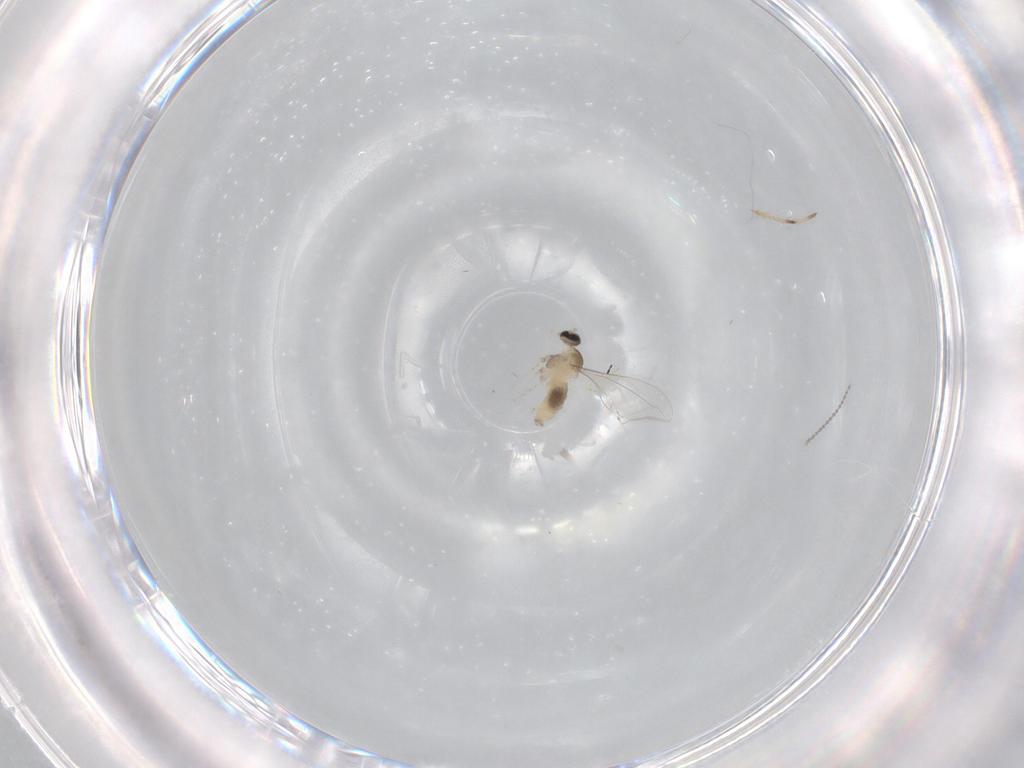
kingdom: Animalia
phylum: Arthropoda
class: Insecta
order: Diptera
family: Cecidomyiidae
